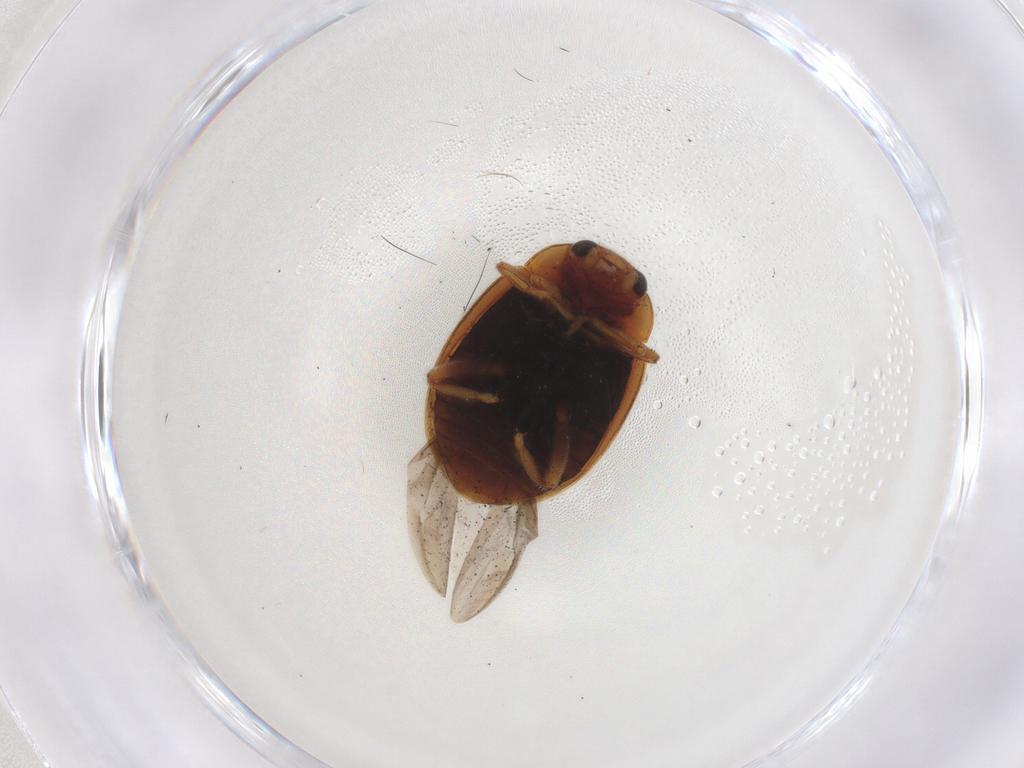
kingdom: Animalia
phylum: Arthropoda
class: Insecta
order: Coleoptera
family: Coccinellidae
